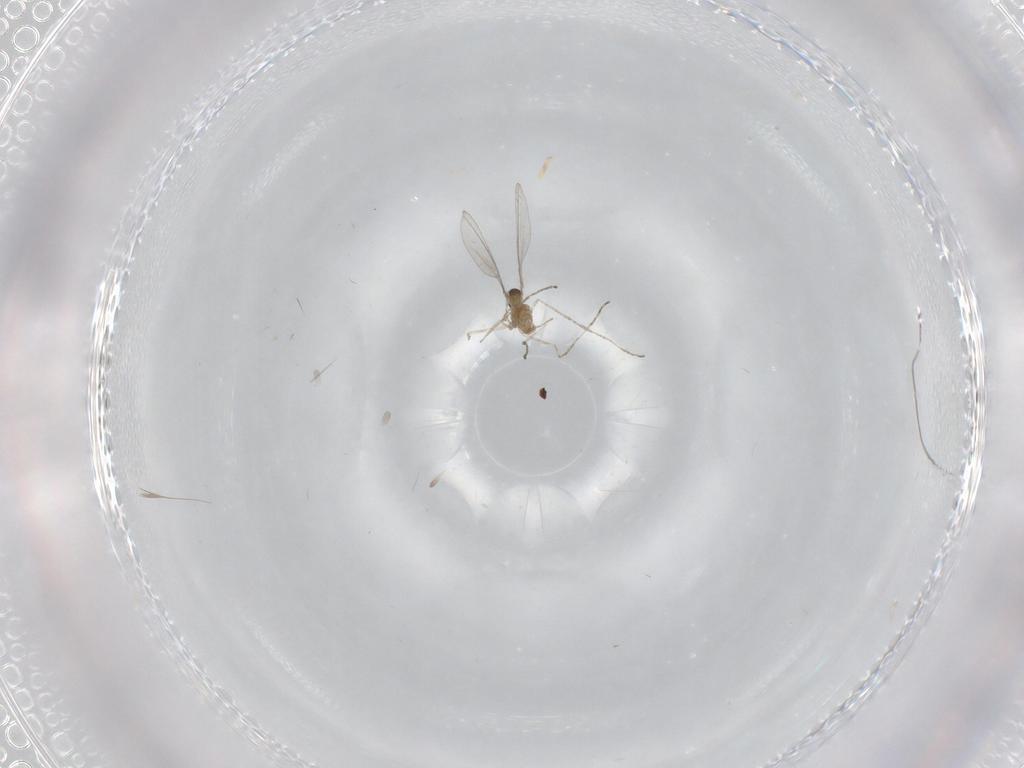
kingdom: Animalia
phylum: Arthropoda
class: Insecta
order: Diptera
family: Cecidomyiidae
